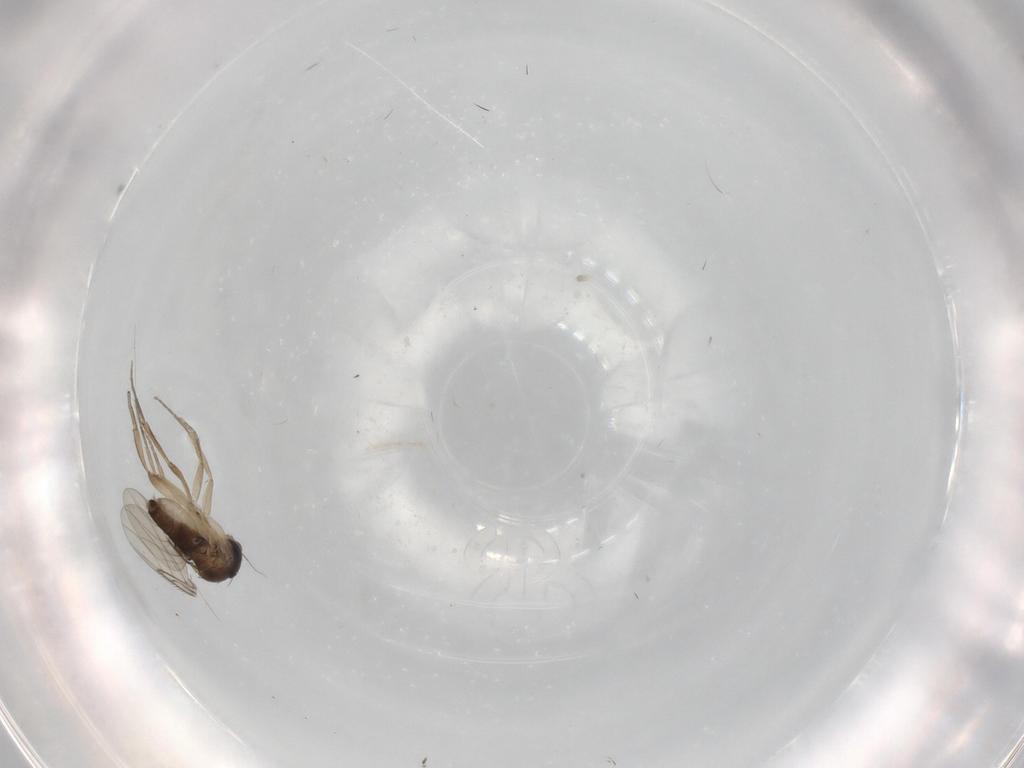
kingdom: Animalia
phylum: Arthropoda
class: Insecta
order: Diptera
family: Phoridae
